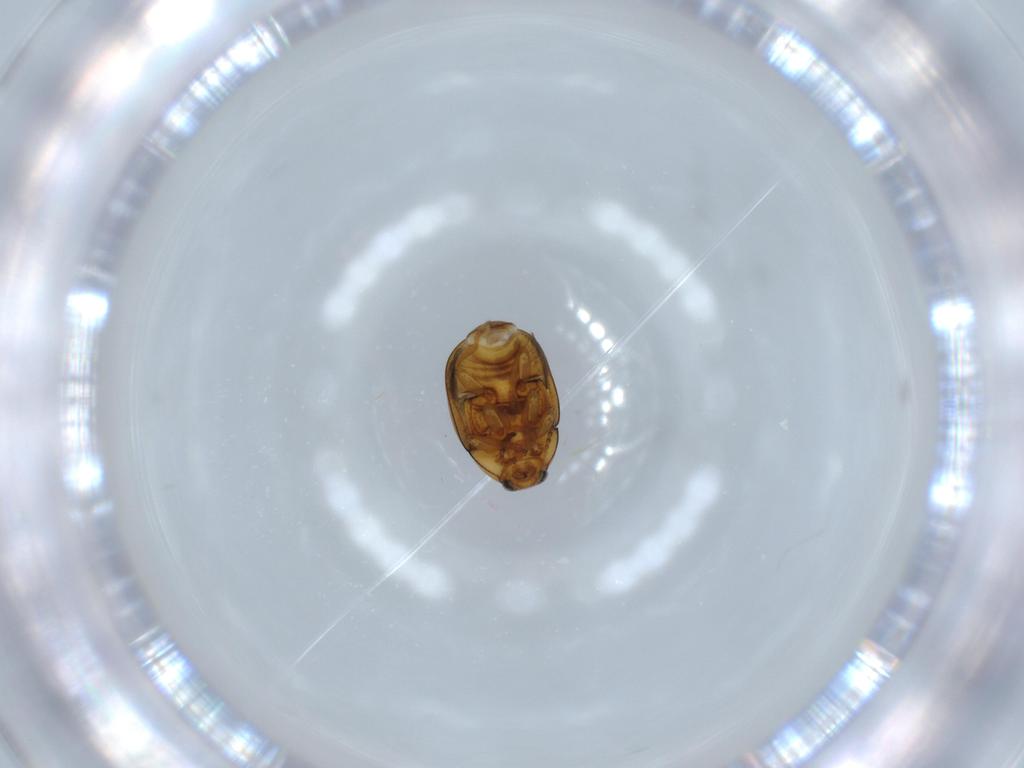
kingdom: Animalia
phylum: Arthropoda
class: Insecta
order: Coleoptera
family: Chrysomelidae
